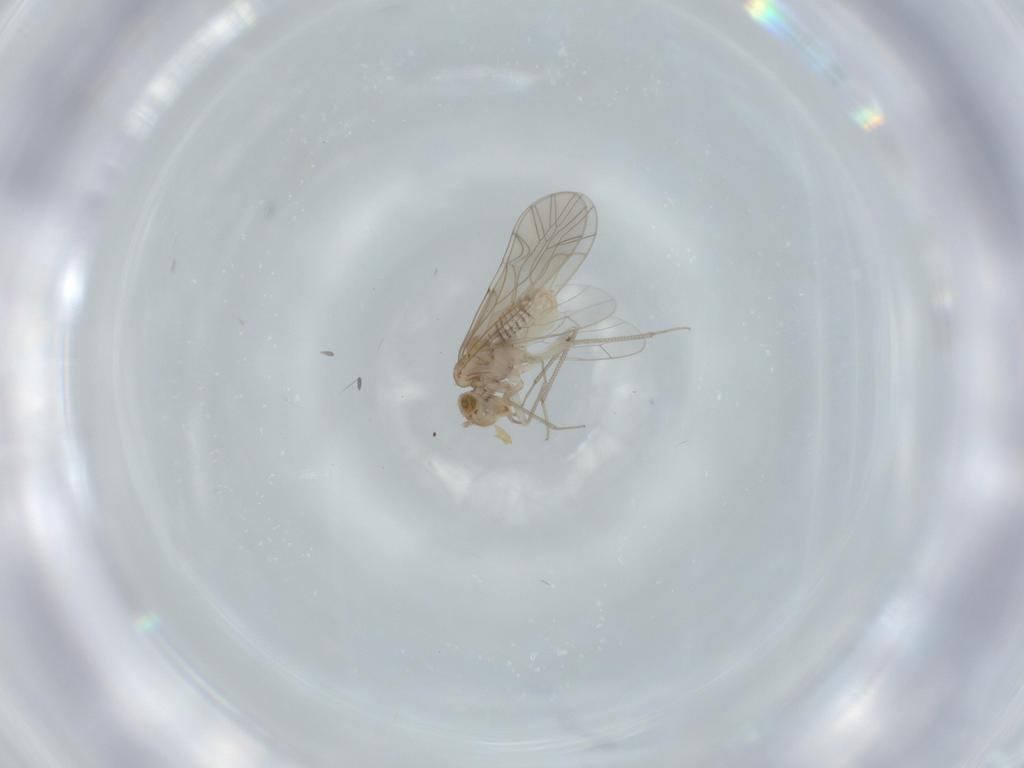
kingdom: Animalia
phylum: Arthropoda
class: Insecta
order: Psocodea
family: Lachesillidae
